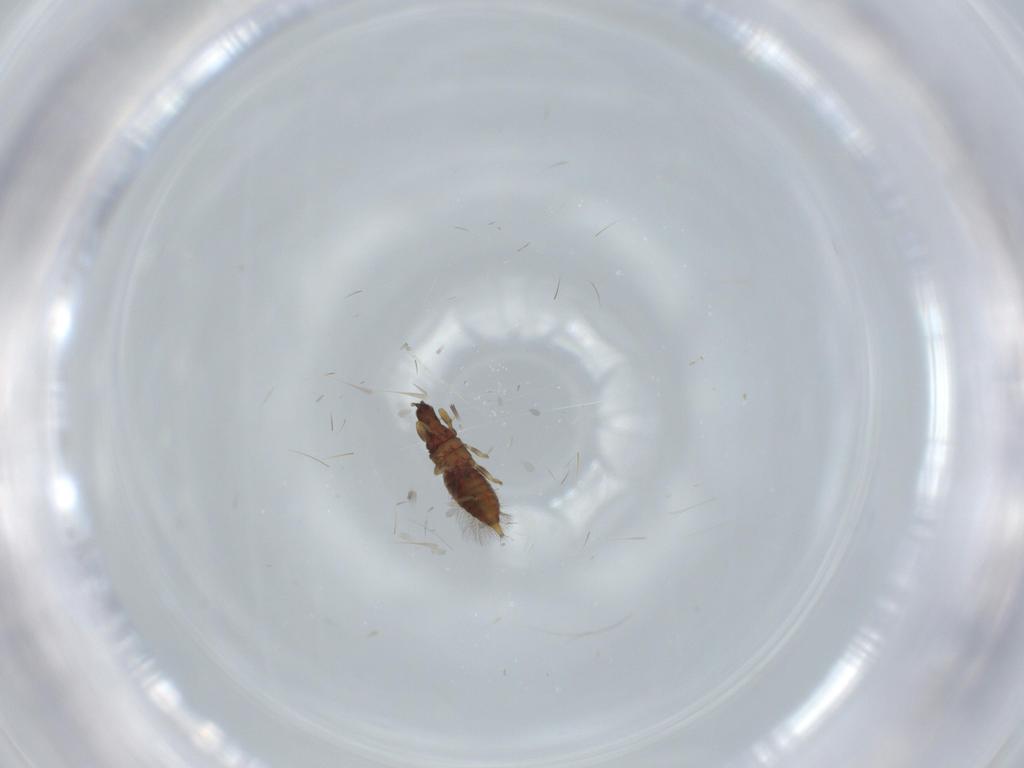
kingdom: Animalia
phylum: Arthropoda
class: Insecta
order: Thysanoptera
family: Phlaeothripidae
